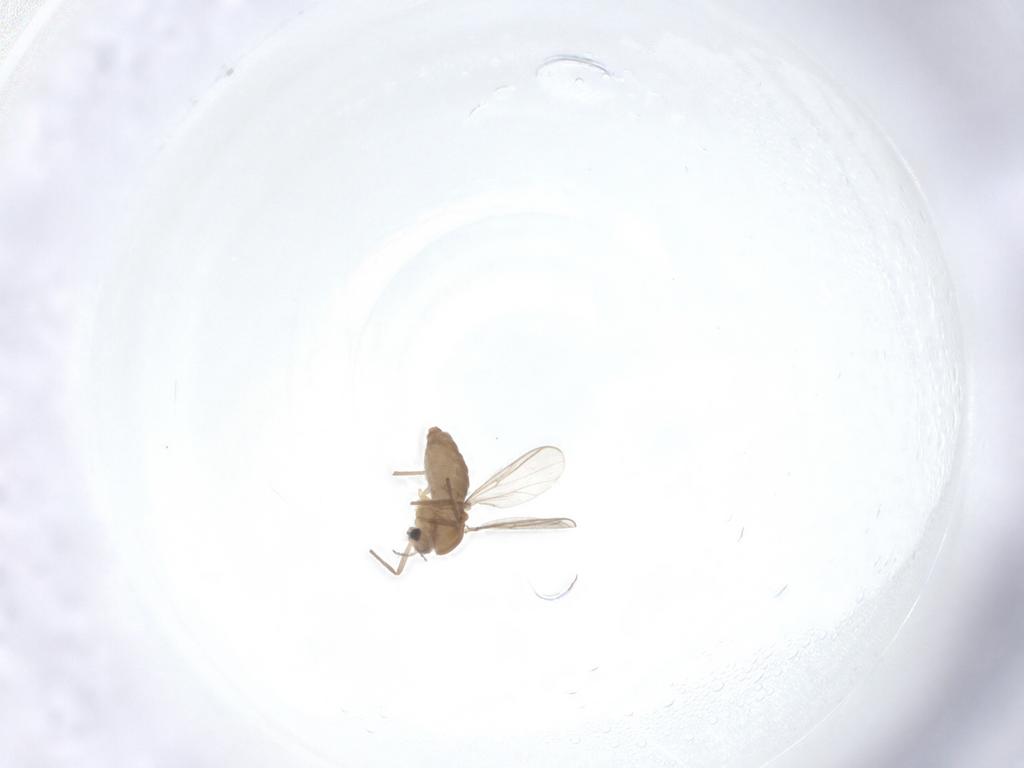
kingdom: Animalia
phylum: Arthropoda
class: Insecta
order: Diptera
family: Chironomidae
